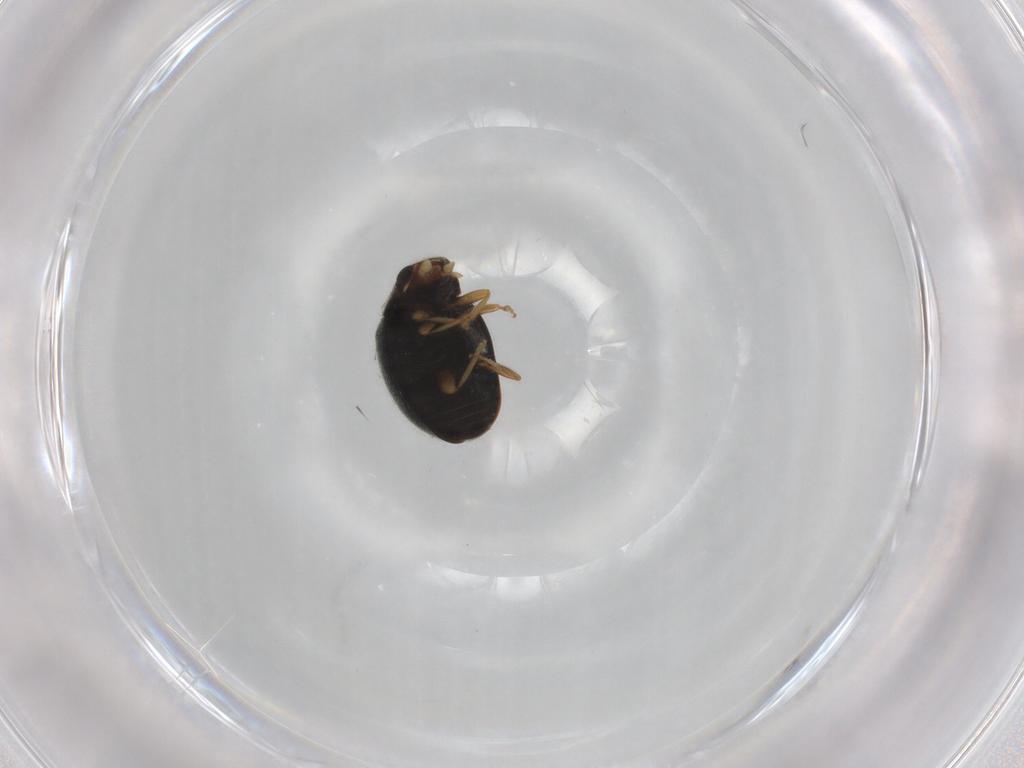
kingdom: Animalia
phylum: Arthropoda
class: Insecta
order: Coleoptera
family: Coccinellidae
